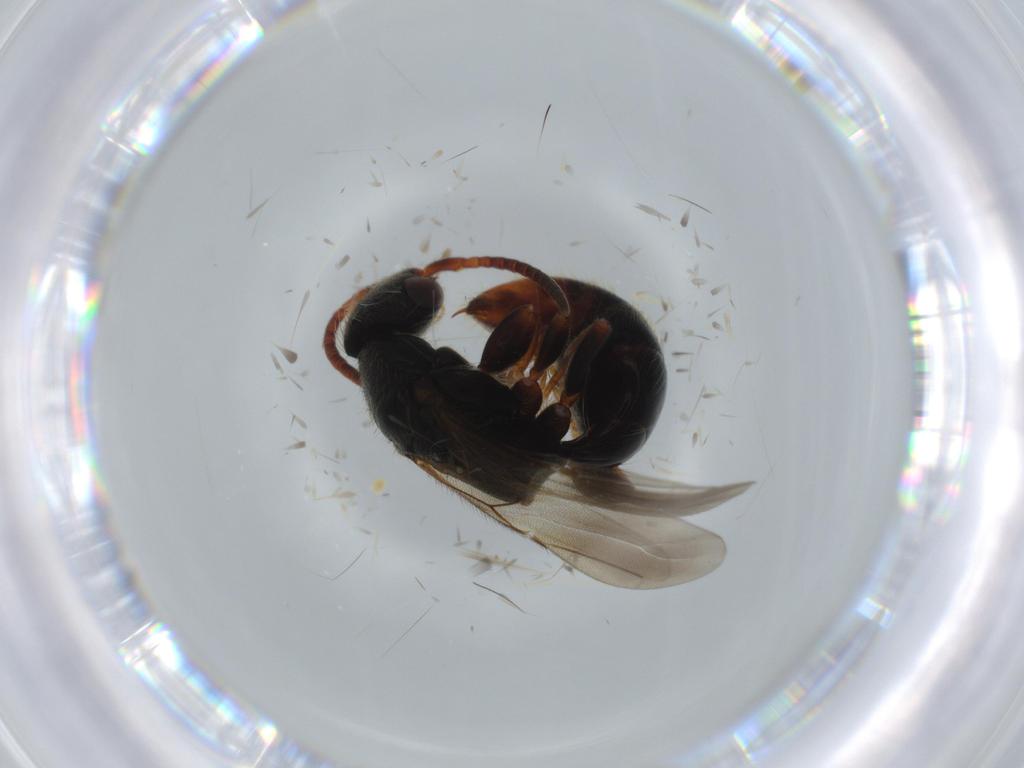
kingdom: Animalia
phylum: Arthropoda
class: Insecta
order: Hymenoptera
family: Bethylidae
